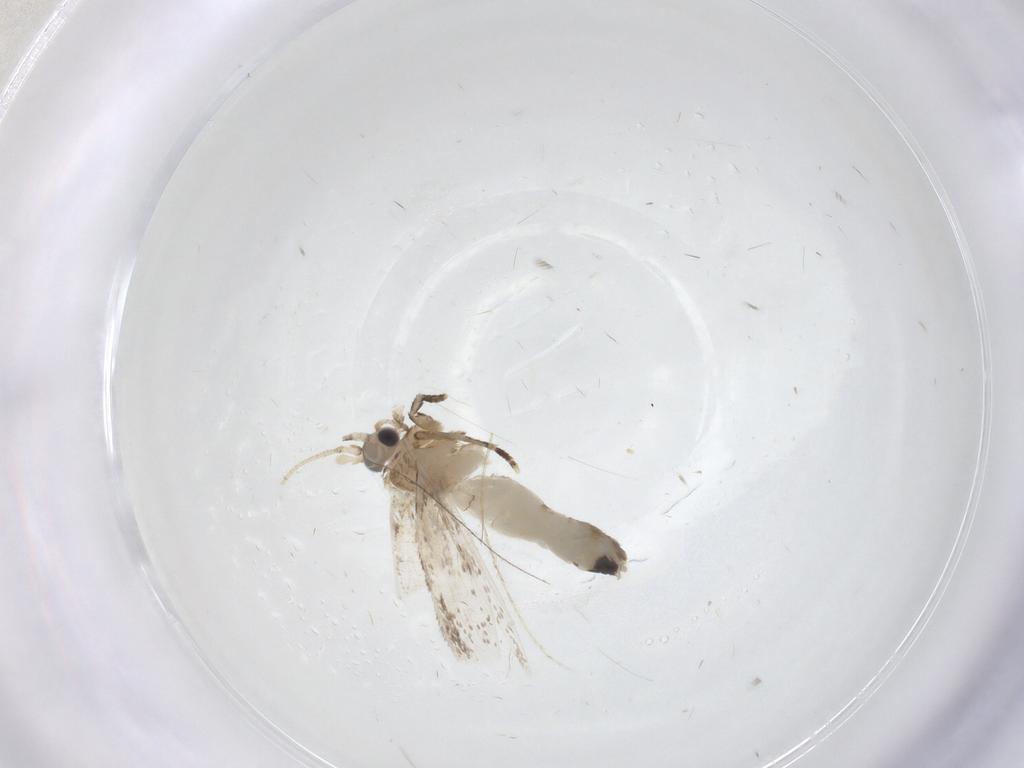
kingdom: Animalia
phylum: Arthropoda
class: Insecta
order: Lepidoptera
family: Dryadaulidae
